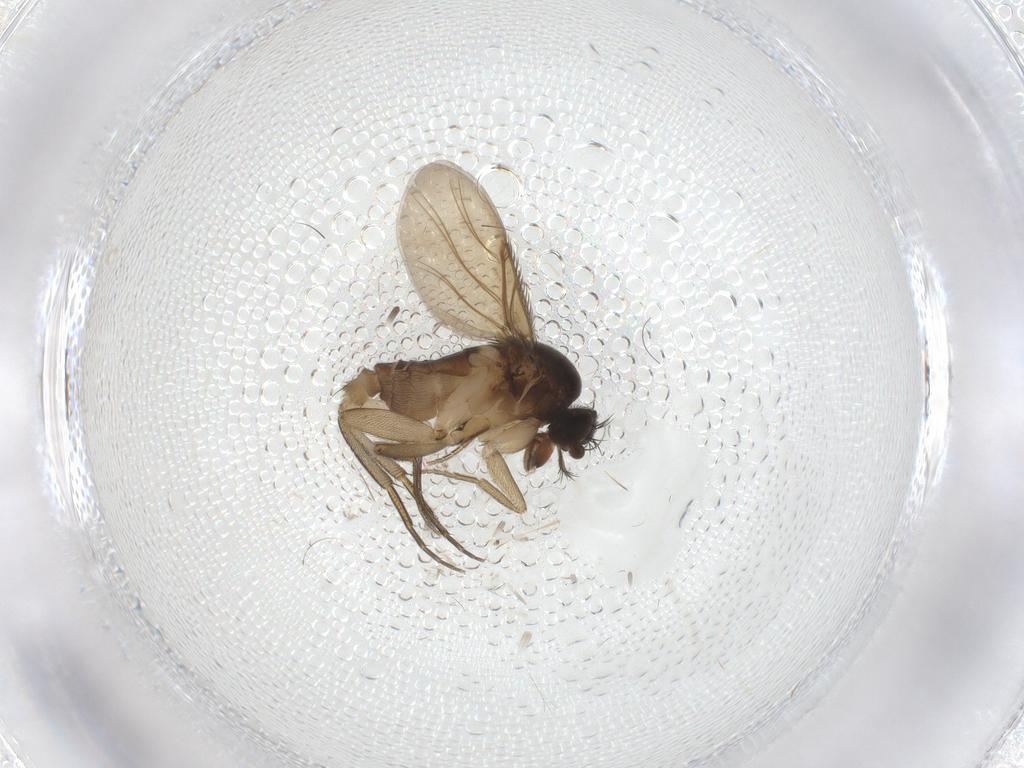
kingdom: Animalia
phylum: Arthropoda
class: Insecta
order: Diptera
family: Phoridae
